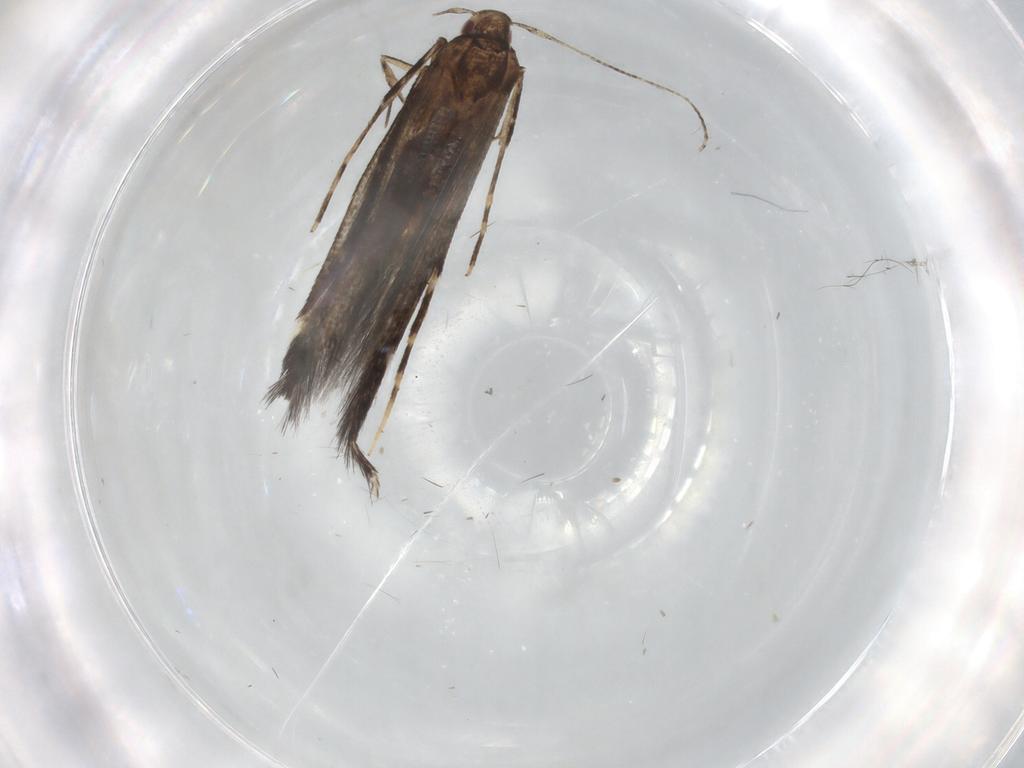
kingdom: Animalia
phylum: Arthropoda
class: Insecta
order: Lepidoptera
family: Cosmopterigidae
